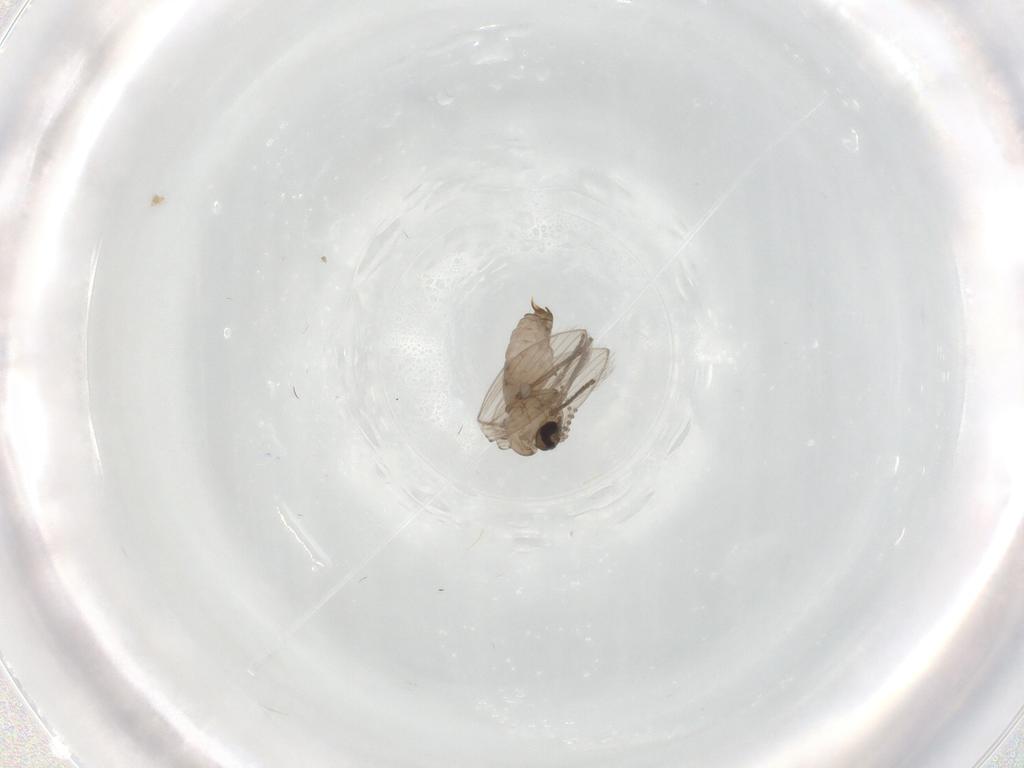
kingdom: Animalia
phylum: Arthropoda
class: Insecta
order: Diptera
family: Psychodidae
